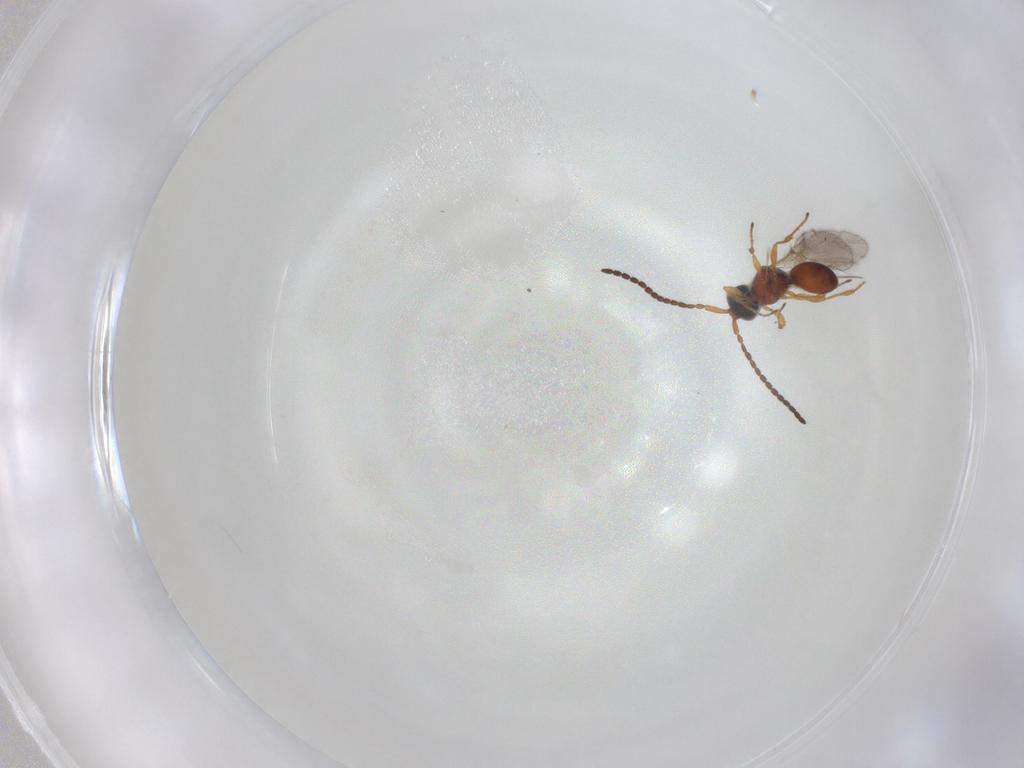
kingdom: Animalia
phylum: Arthropoda
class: Insecta
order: Hymenoptera
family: Diapriidae
